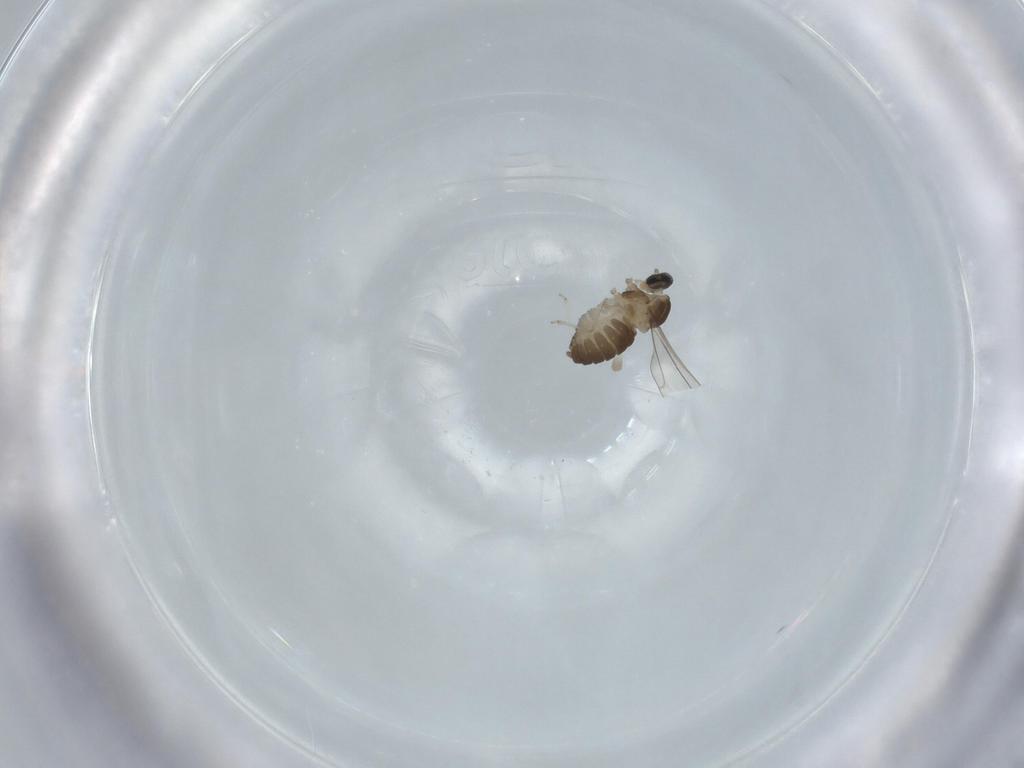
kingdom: Animalia
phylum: Arthropoda
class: Insecta
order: Diptera
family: Cecidomyiidae
